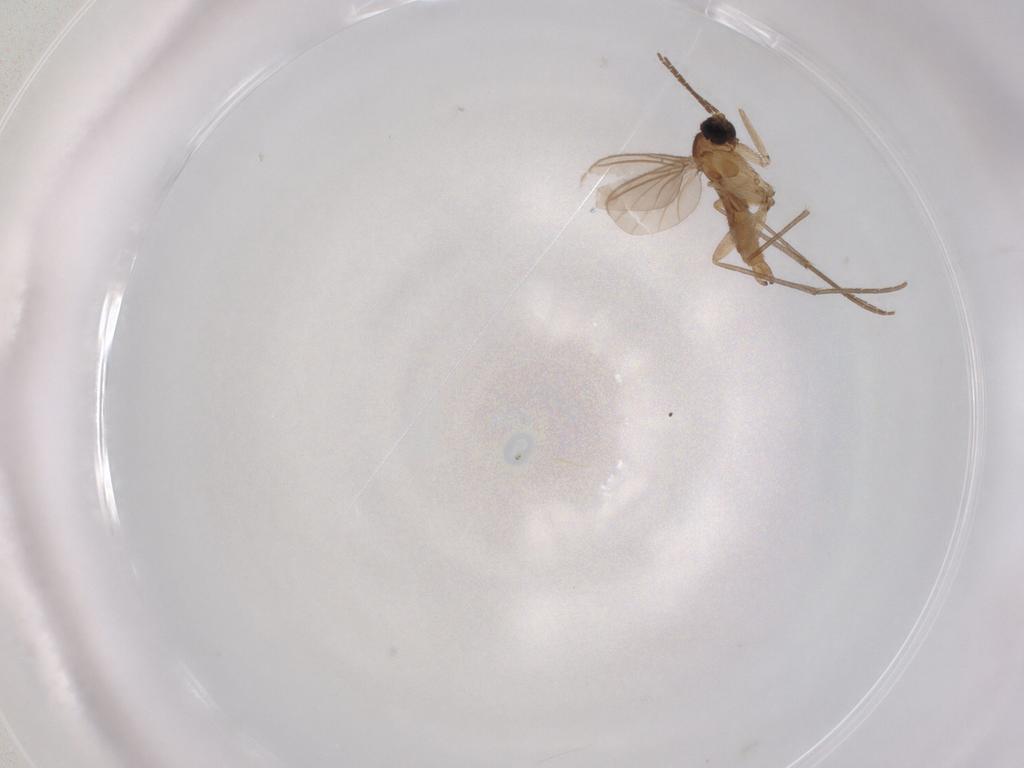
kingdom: Animalia
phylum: Arthropoda
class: Insecta
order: Diptera
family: Sciaridae
